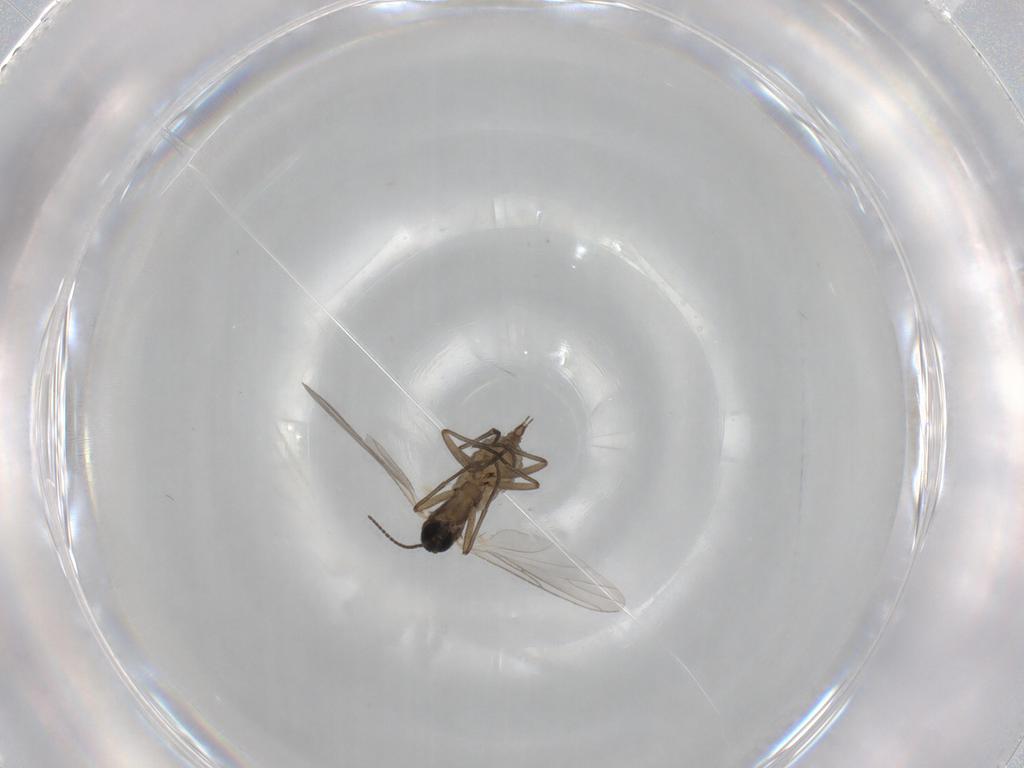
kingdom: Animalia
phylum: Arthropoda
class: Insecta
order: Diptera
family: Sciaridae
